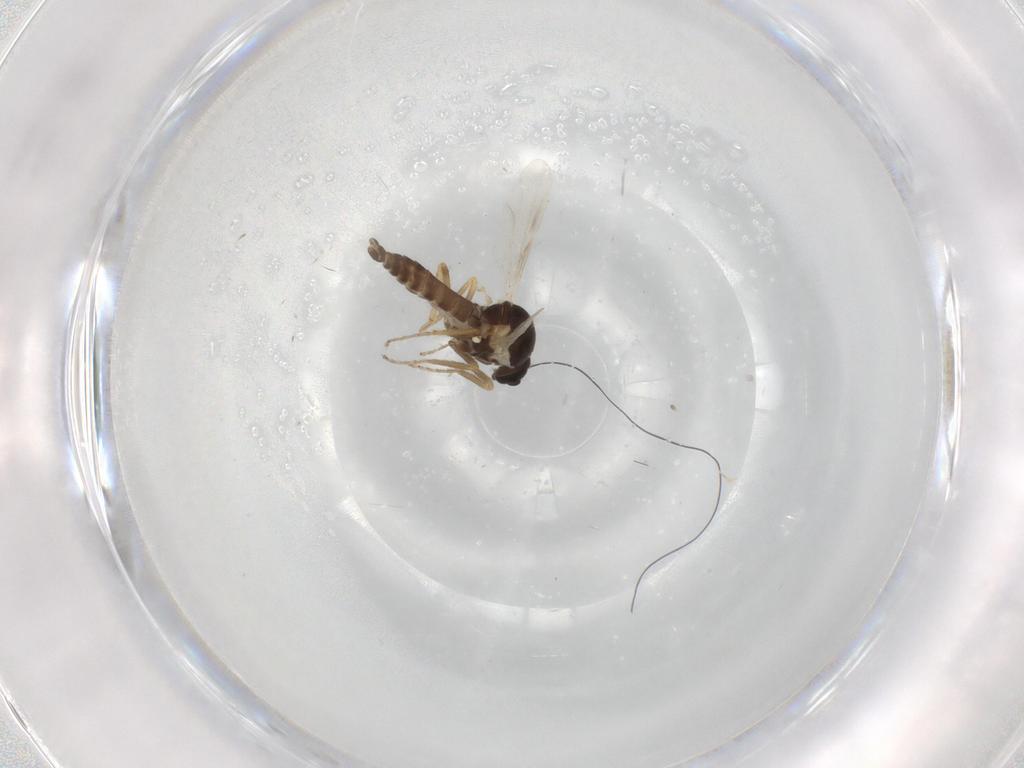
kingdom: Animalia
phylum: Arthropoda
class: Insecta
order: Diptera
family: Ceratopogonidae
